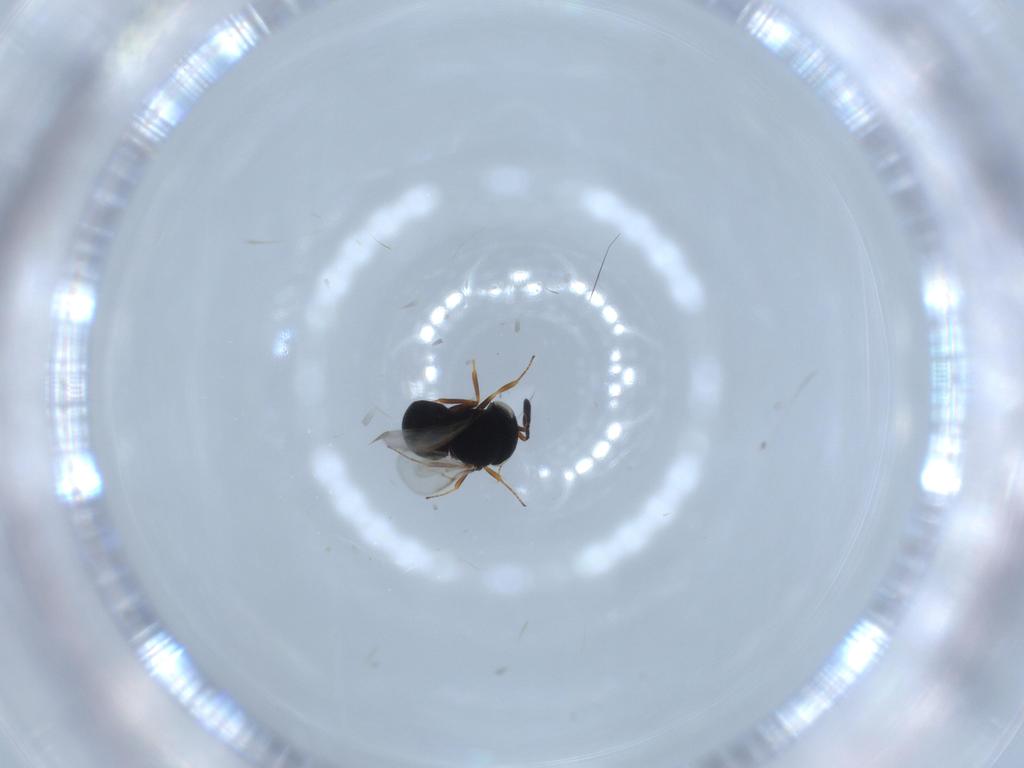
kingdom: Animalia
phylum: Arthropoda
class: Insecta
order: Hymenoptera
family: Scelionidae
